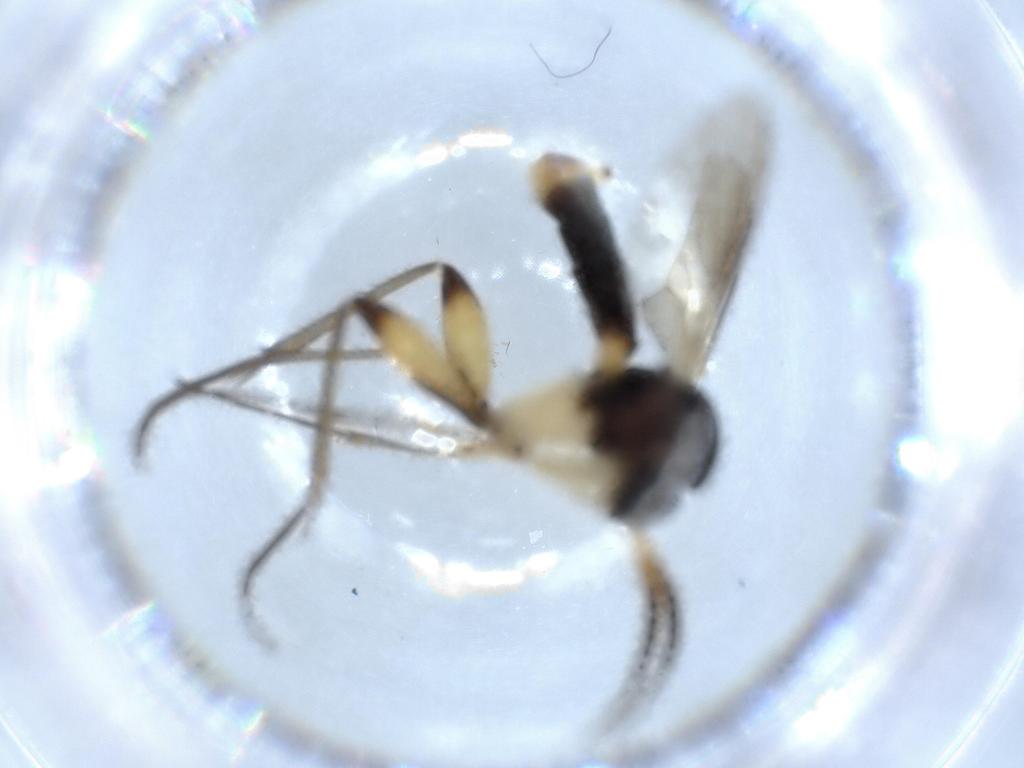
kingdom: Animalia
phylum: Arthropoda
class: Insecta
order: Diptera
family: Mycetophilidae
